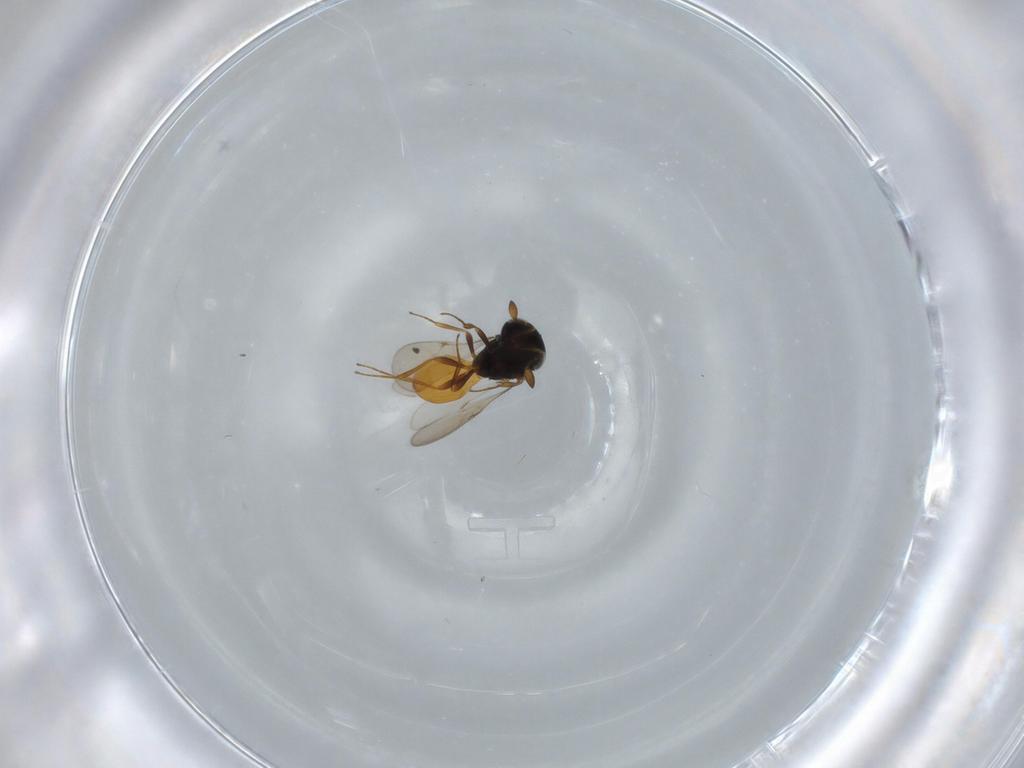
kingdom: Animalia
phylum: Arthropoda
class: Insecta
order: Hymenoptera
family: Scelionidae
